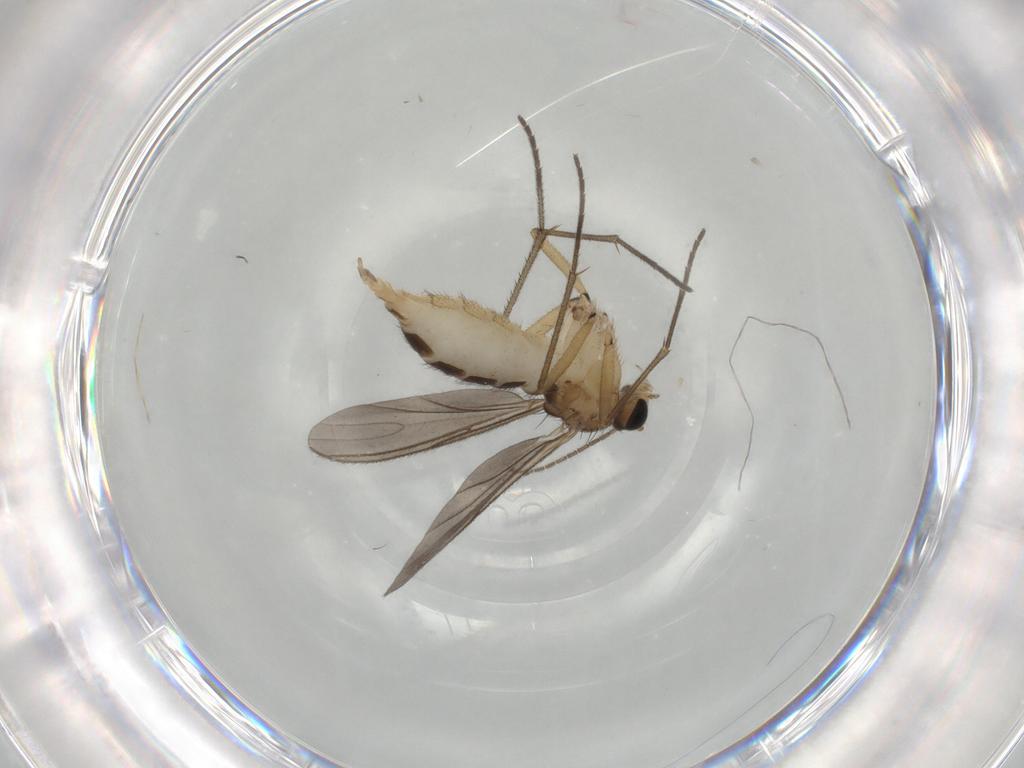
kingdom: Animalia
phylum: Arthropoda
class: Insecta
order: Diptera
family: Sciaridae
